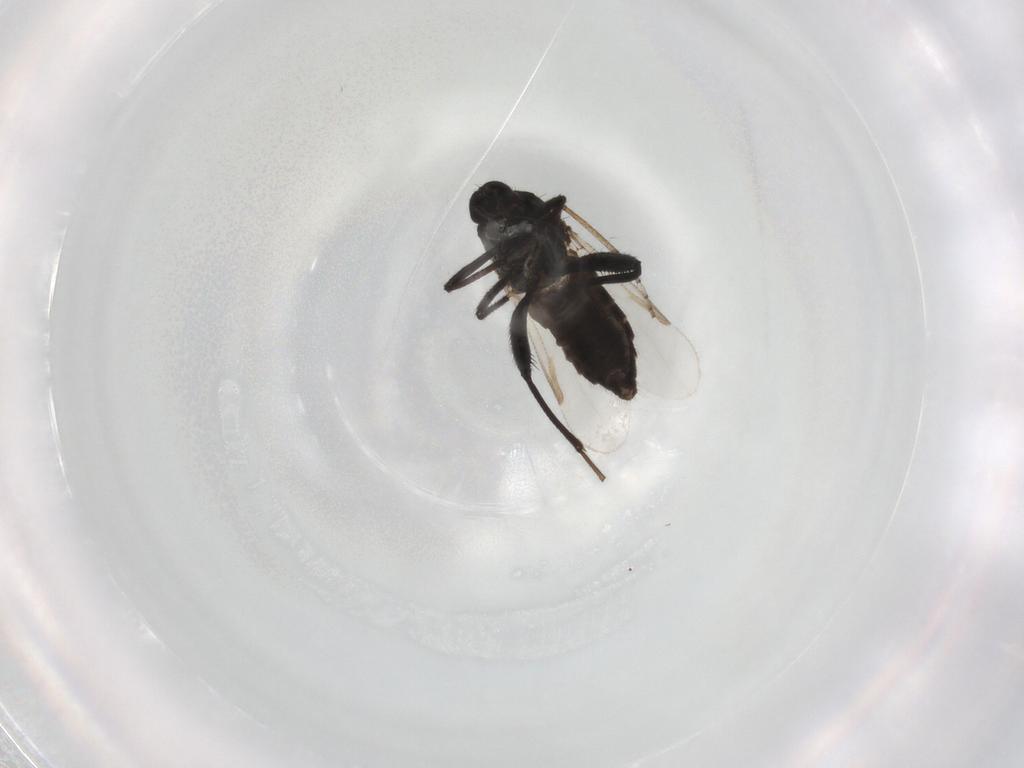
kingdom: Animalia
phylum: Arthropoda
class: Insecta
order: Diptera
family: Ceratopogonidae
